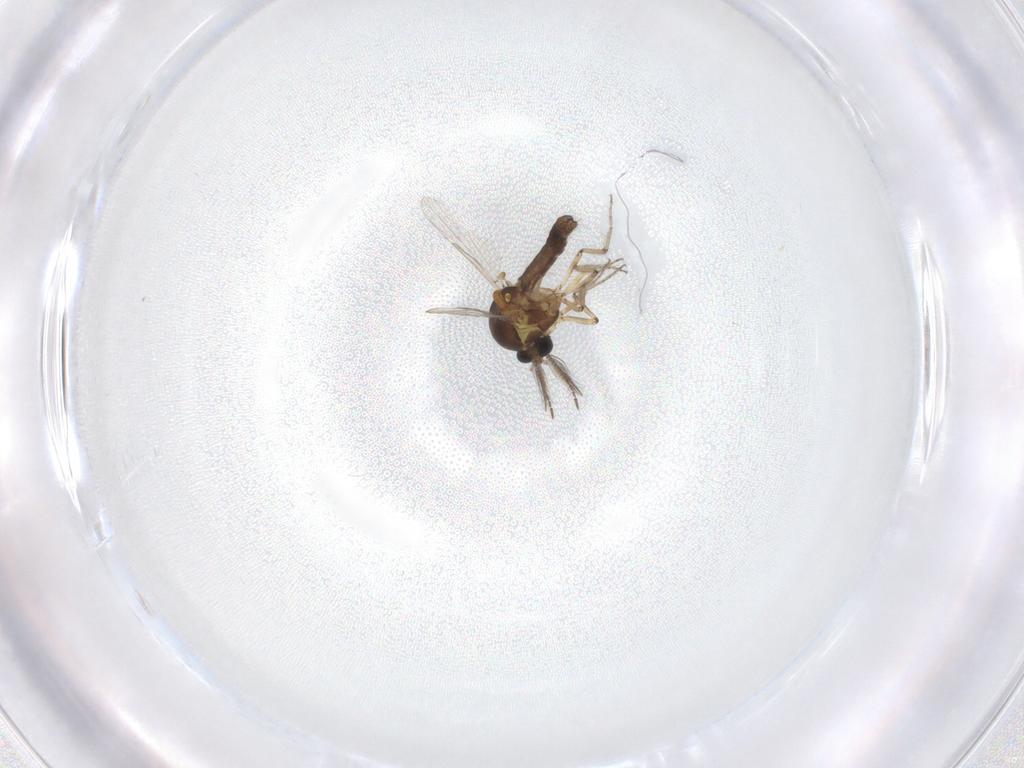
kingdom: Animalia
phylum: Arthropoda
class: Insecta
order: Diptera
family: Ceratopogonidae
